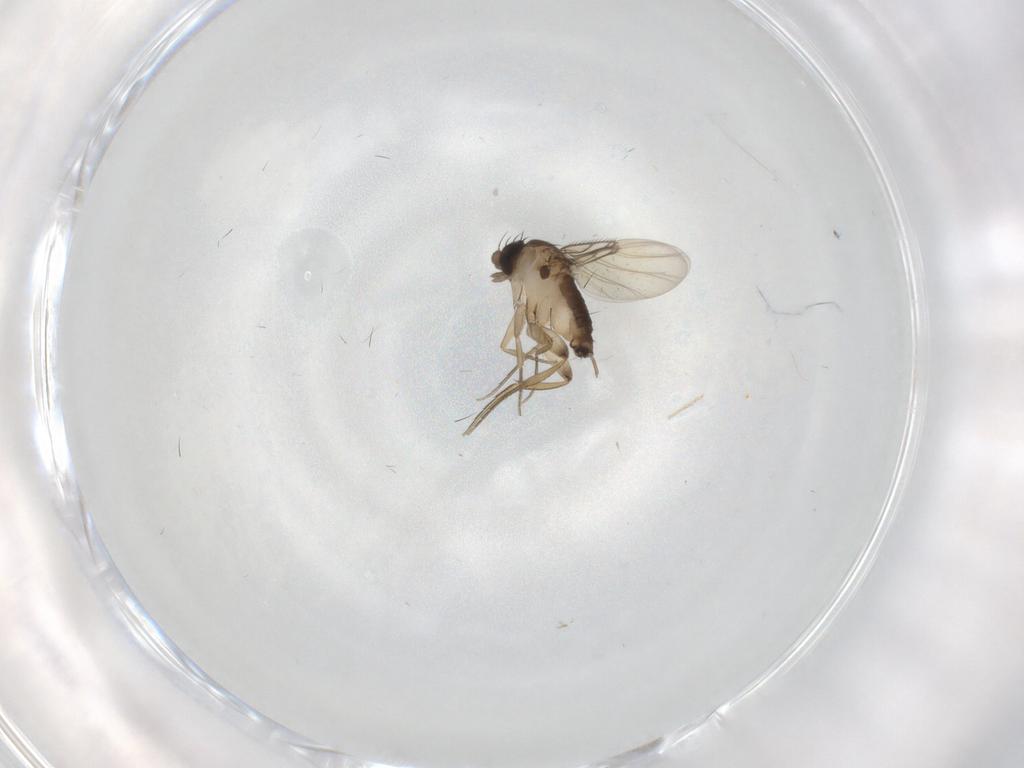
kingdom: Animalia
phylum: Arthropoda
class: Insecta
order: Diptera
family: Phoridae
